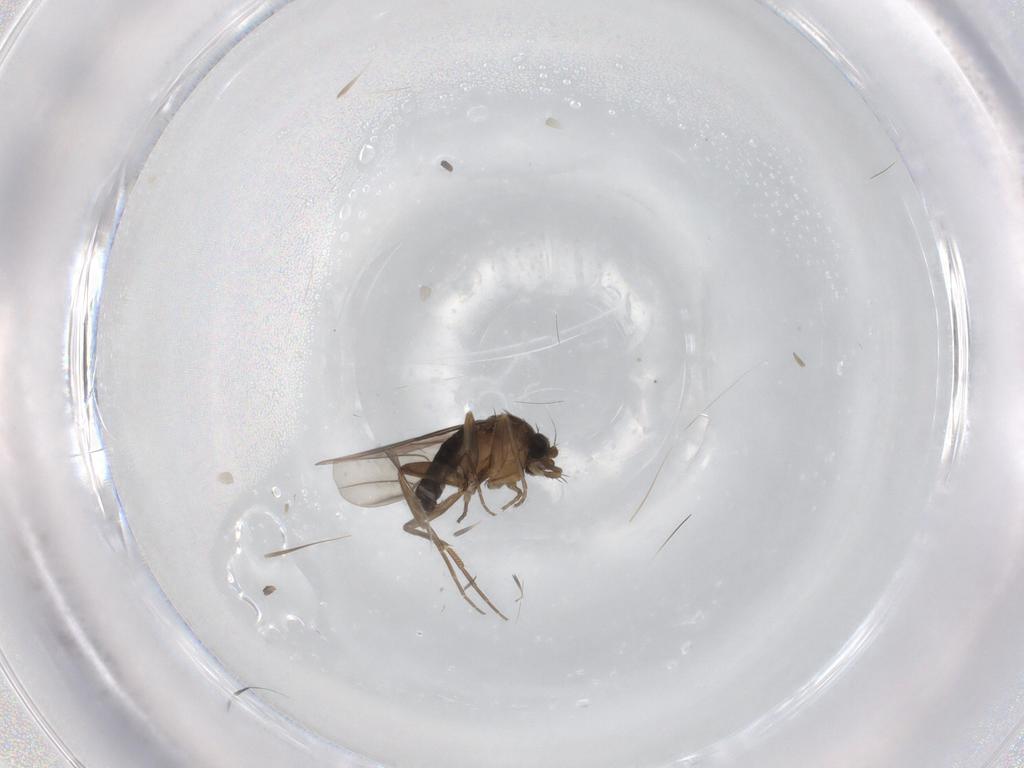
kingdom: Animalia
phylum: Arthropoda
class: Insecta
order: Diptera
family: Phoridae
